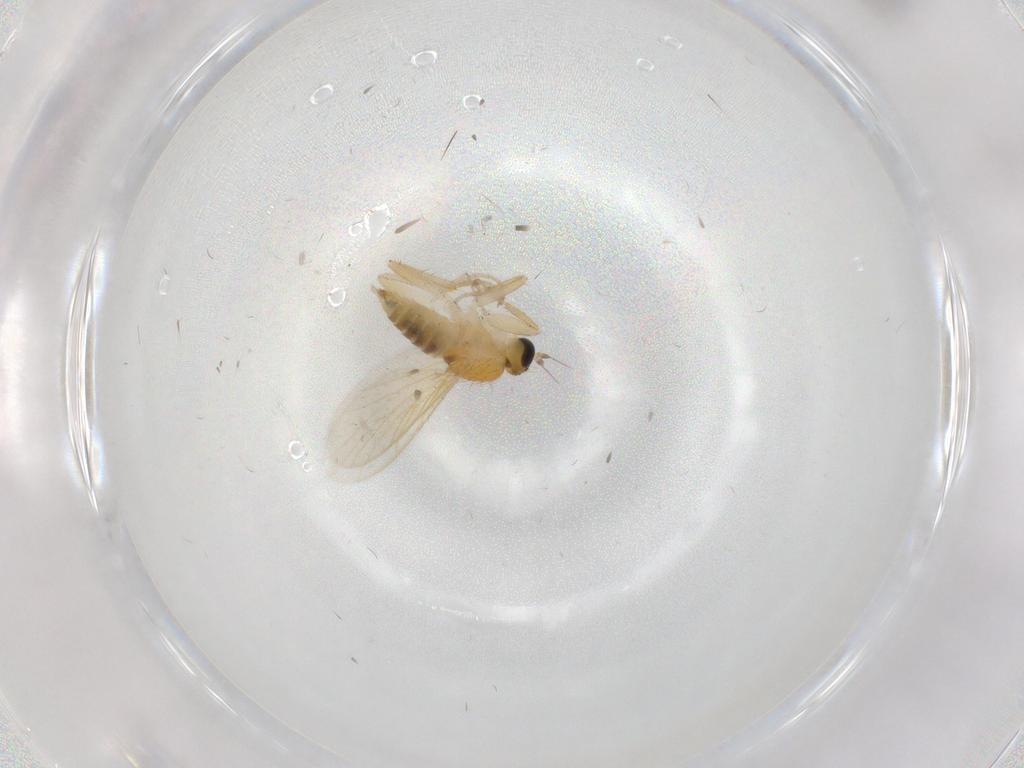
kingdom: Animalia
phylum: Arthropoda
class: Insecta
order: Diptera
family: Hybotidae
